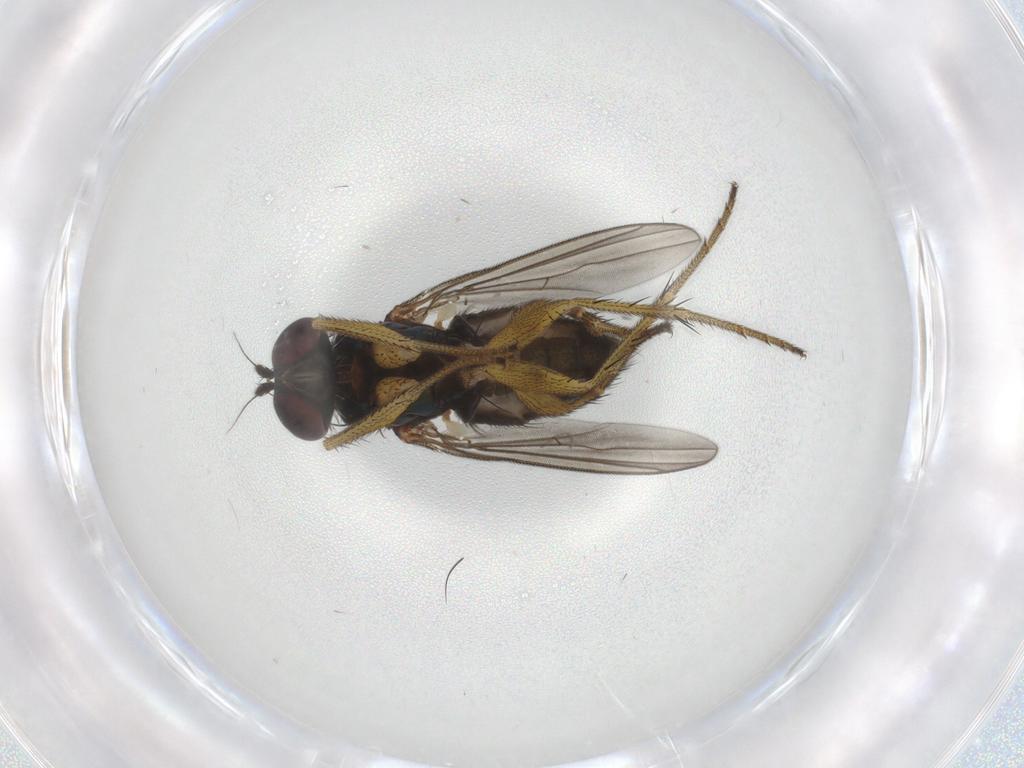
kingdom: Animalia
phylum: Arthropoda
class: Insecta
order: Diptera
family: Dolichopodidae
